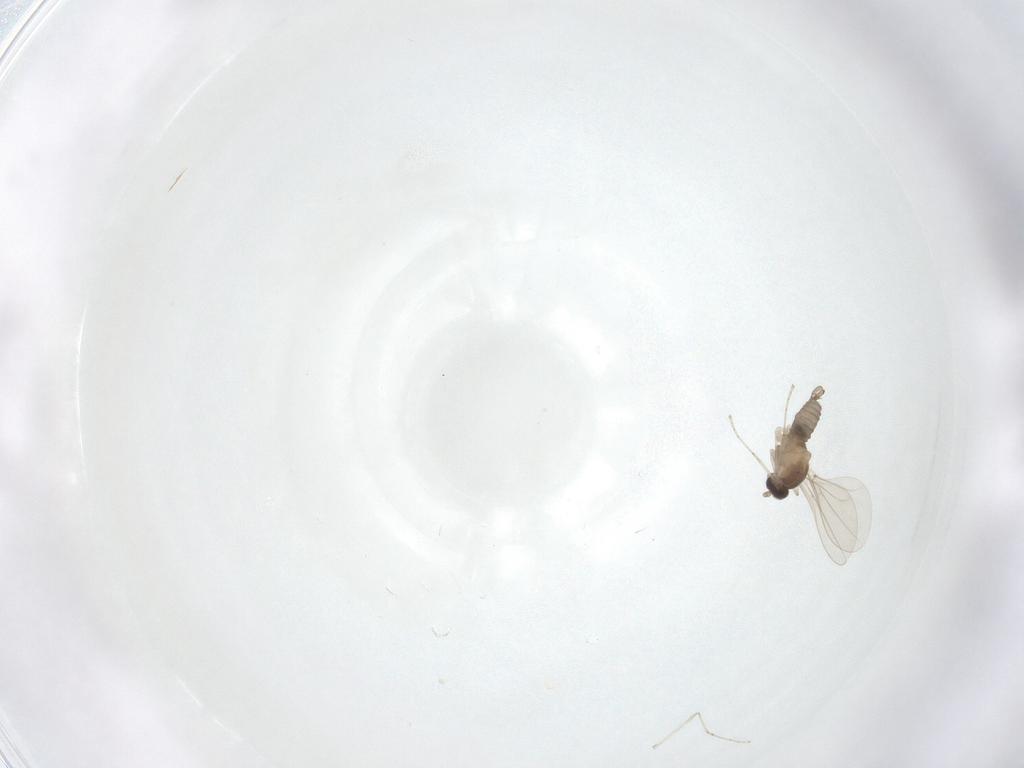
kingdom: Animalia
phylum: Arthropoda
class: Insecta
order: Diptera
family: Cecidomyiidae
